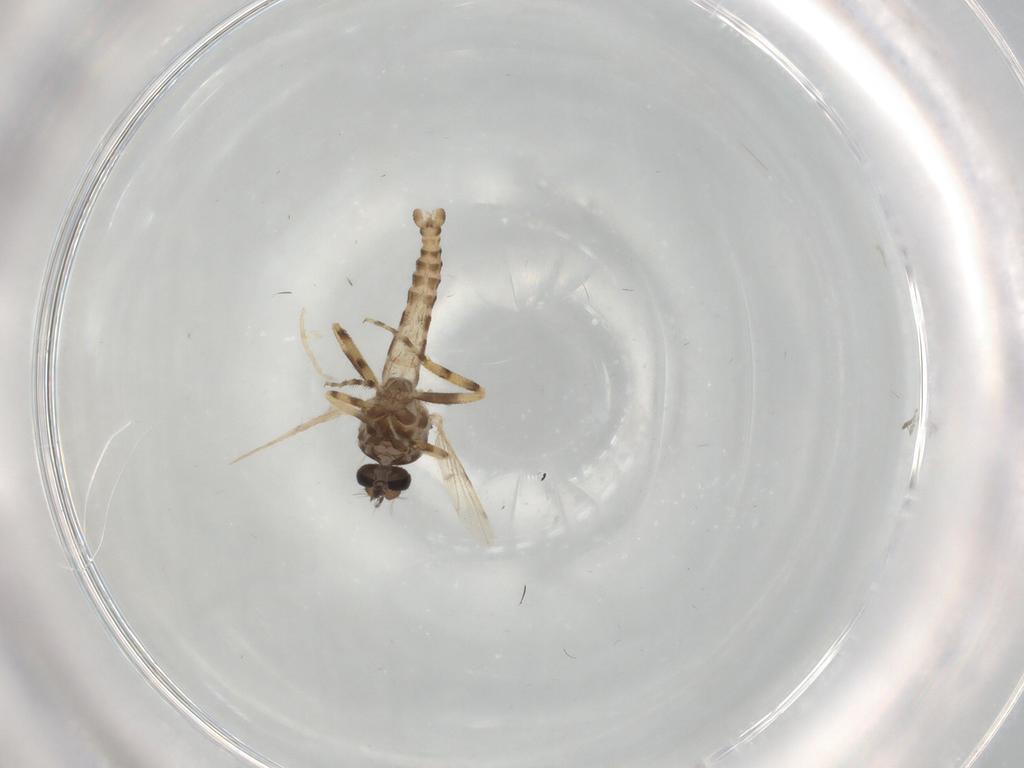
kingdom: Animalia
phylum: Arthropoda
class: Insecta
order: Diptera
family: Ceratopogonidae
